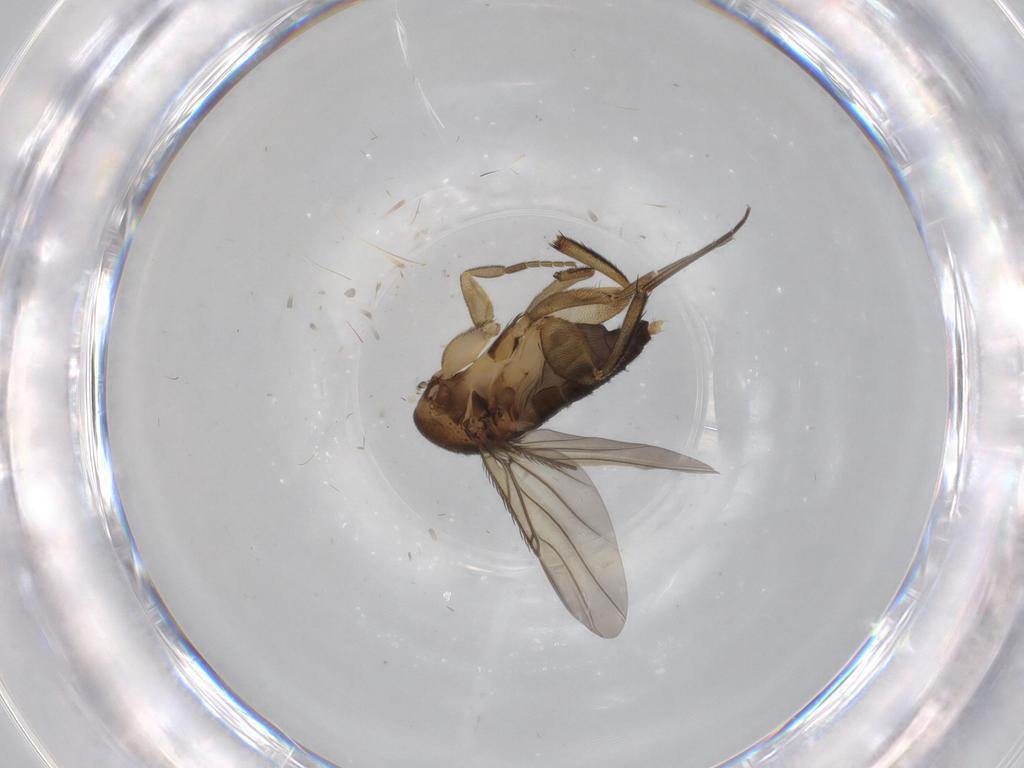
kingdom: Animalia
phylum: Arthropoda
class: Insecta
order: Diptera
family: Phoridae
